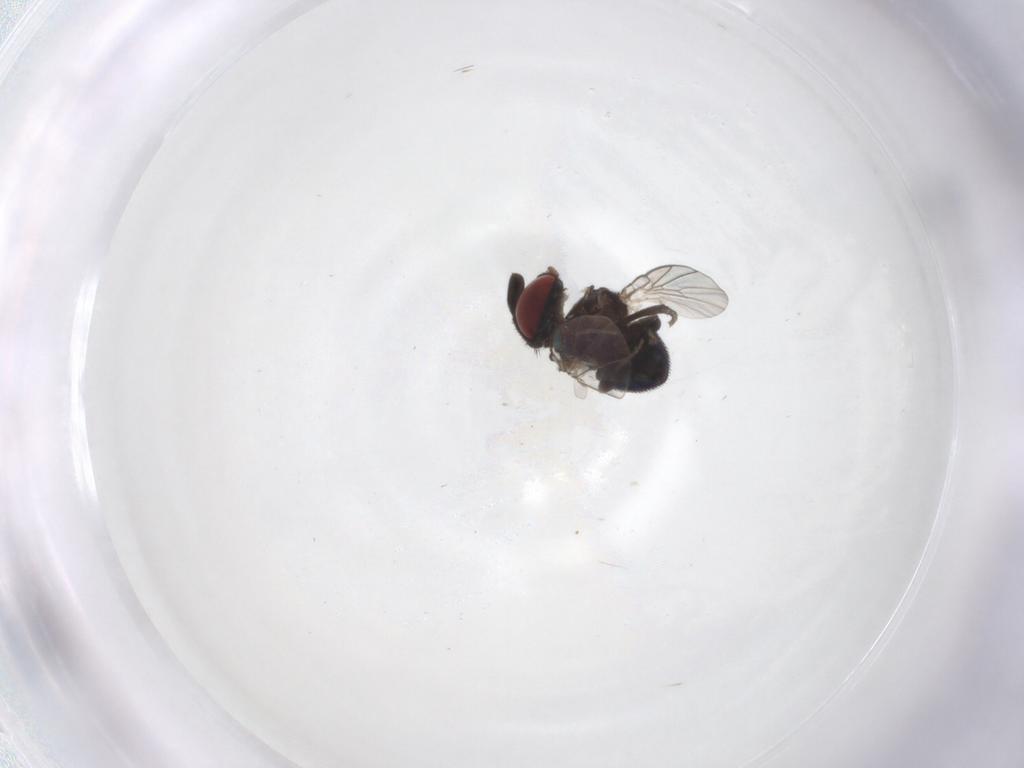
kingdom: Animalia
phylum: Arthropoda
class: Insecta
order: Diptera
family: Cryptochetidae
